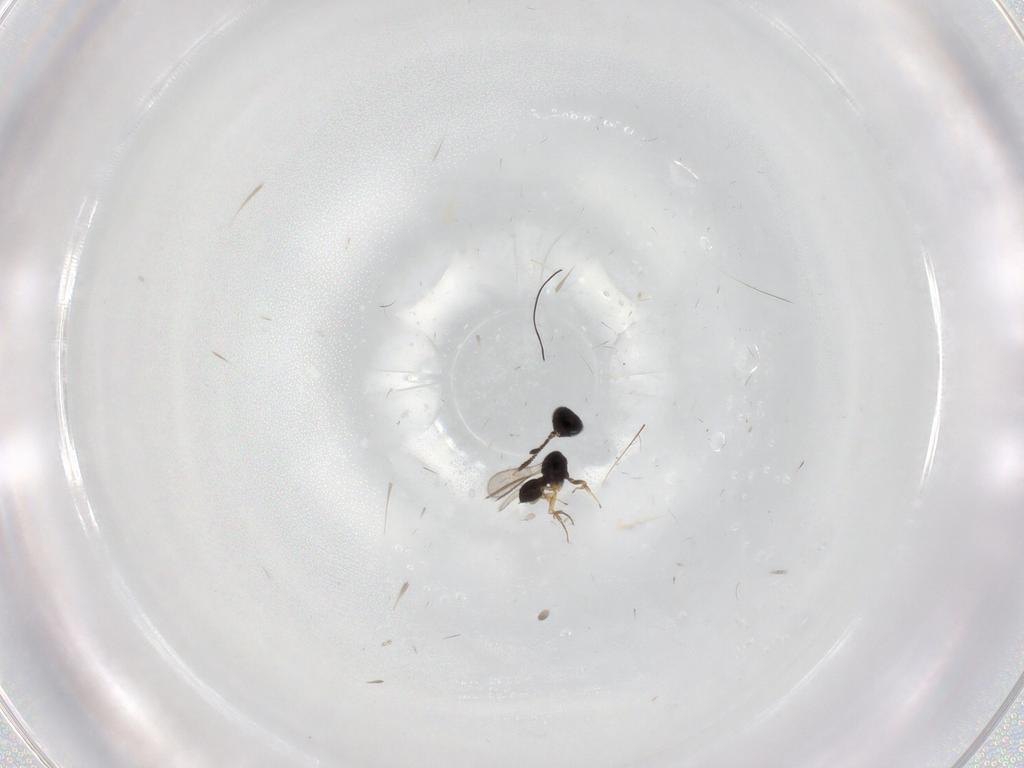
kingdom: Animalia
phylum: Arthropoda
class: Insecta
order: Hymenoptera
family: Scelionidae
